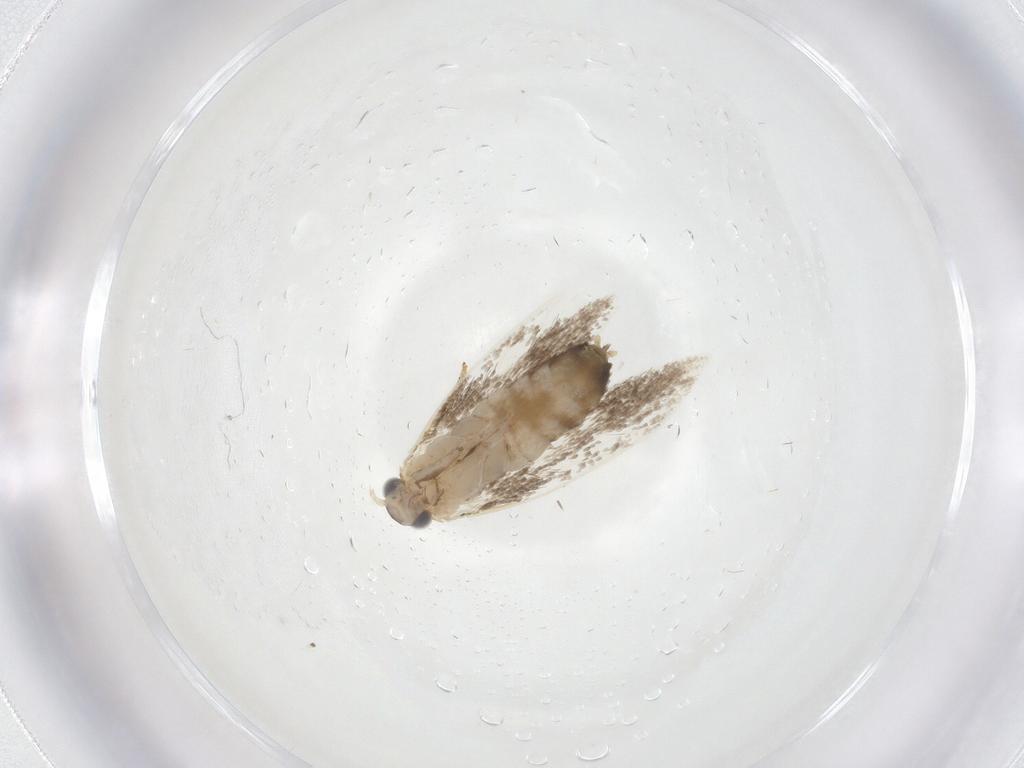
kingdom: Animalia
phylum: Arthropoda
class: Insecta
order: Lepidoptera
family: Dryadaulidae
